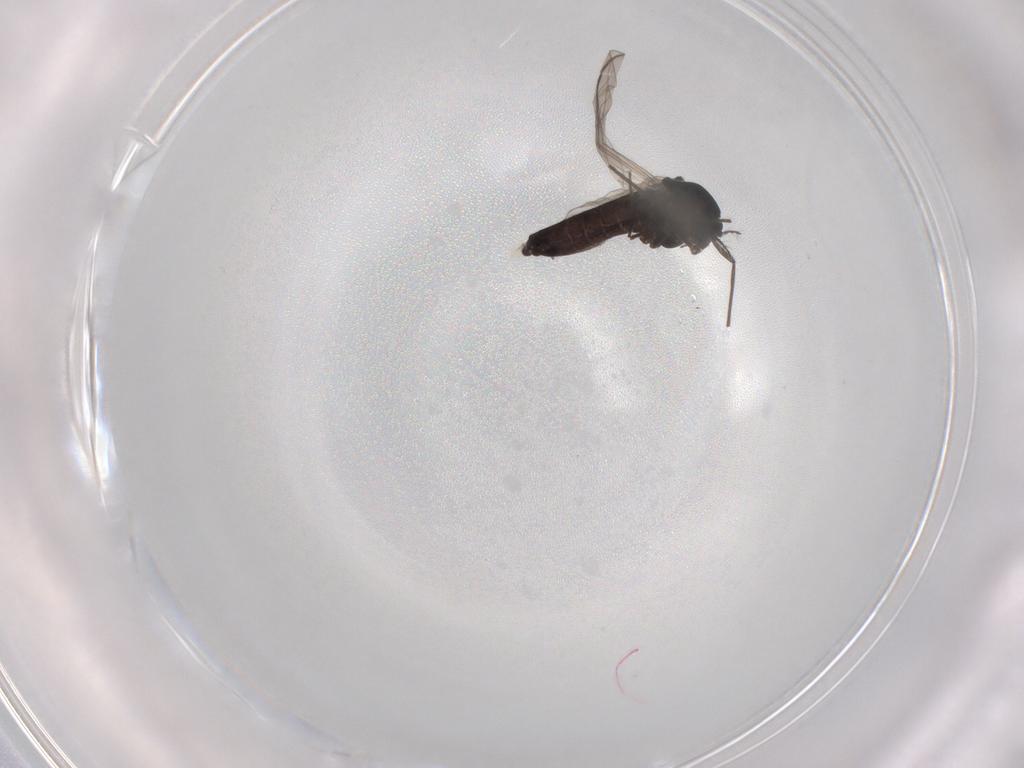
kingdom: Animalia
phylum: Arthropoda
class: Insecta
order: Diptera
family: Chironomidae
